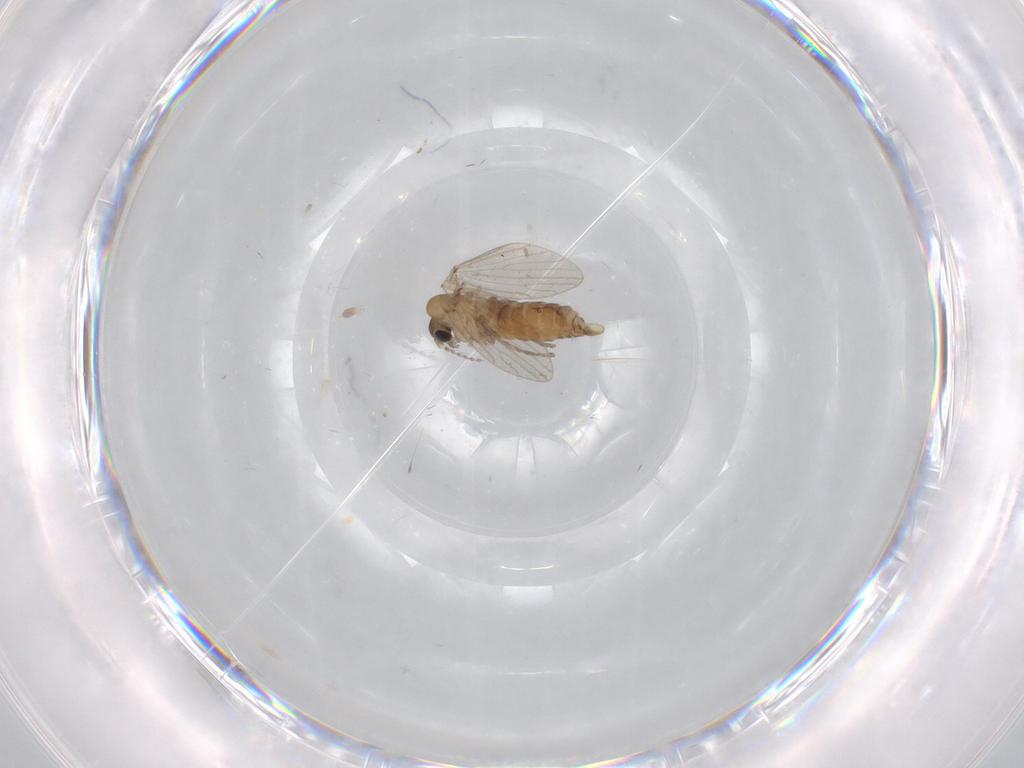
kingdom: Animalia
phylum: Arthropoda
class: Insecta
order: Diptera
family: Psychodidae
